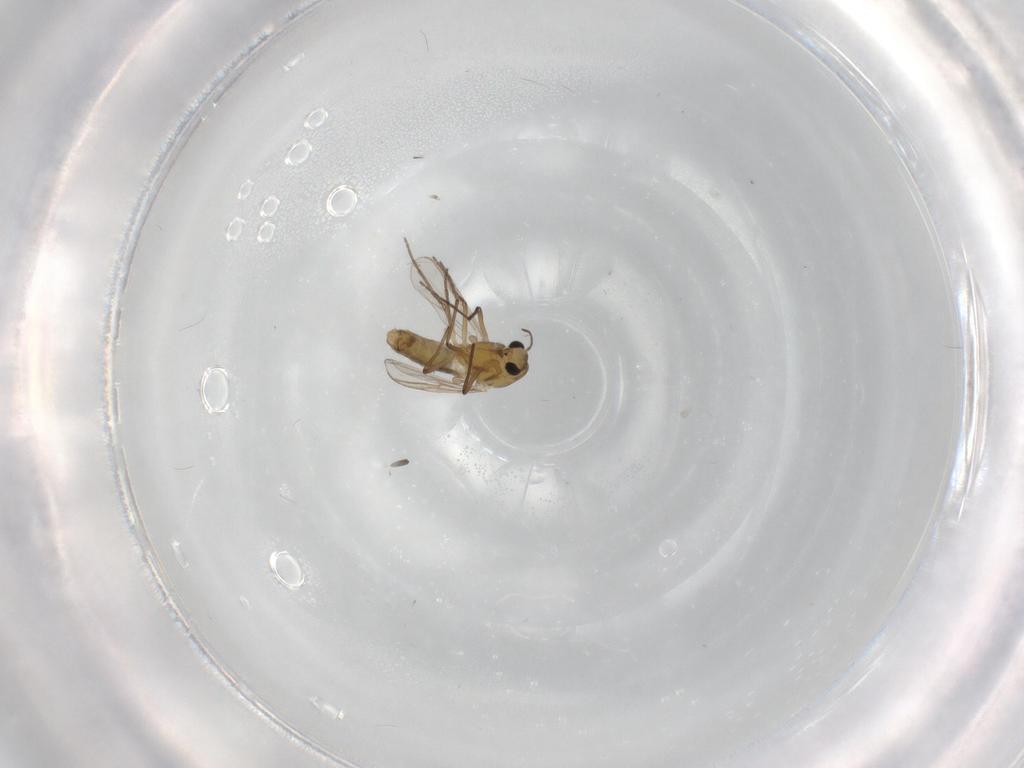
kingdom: Animalia
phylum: Arthropoda
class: Insecta
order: Diptera
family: Chironomidae
